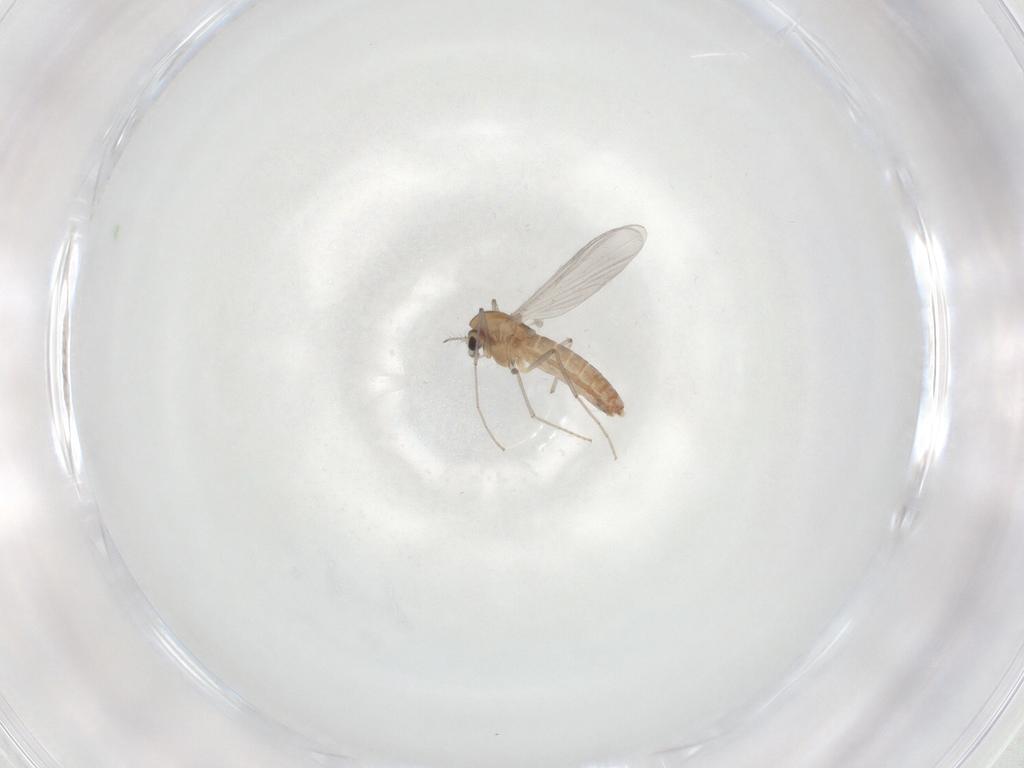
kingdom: Animalia
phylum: Arthropoda
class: Insecta
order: Diptera
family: Chironomidae
